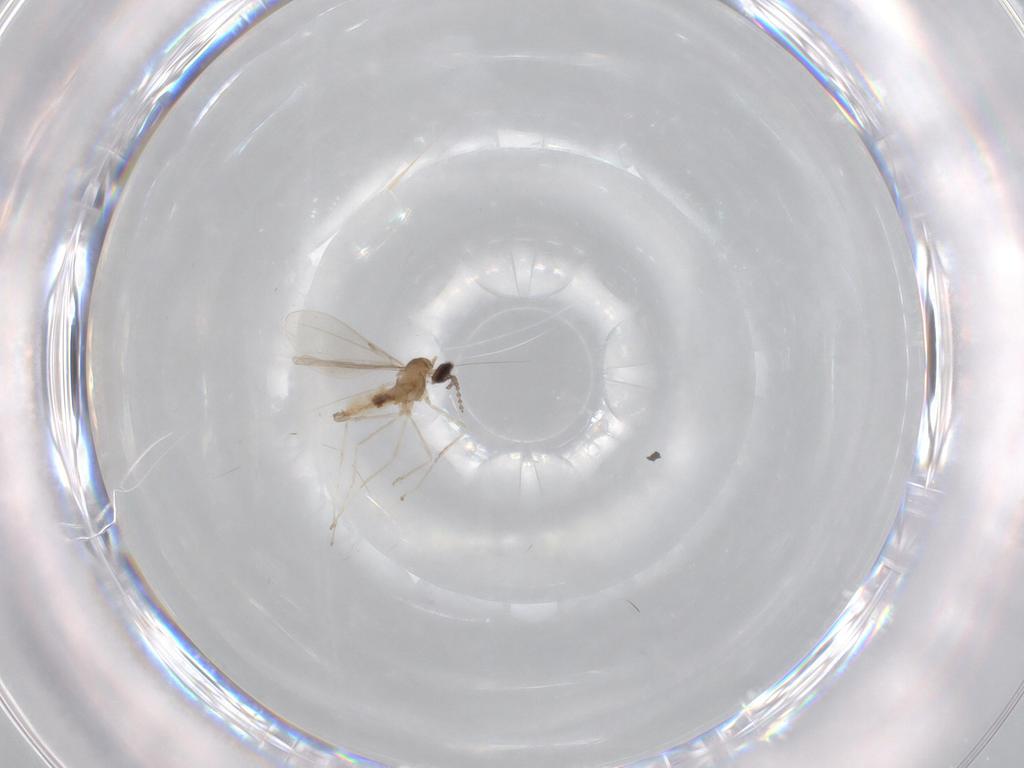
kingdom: Animalia
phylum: Arthropoda
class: Insecta
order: Diptera
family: Cecidomyiidae
